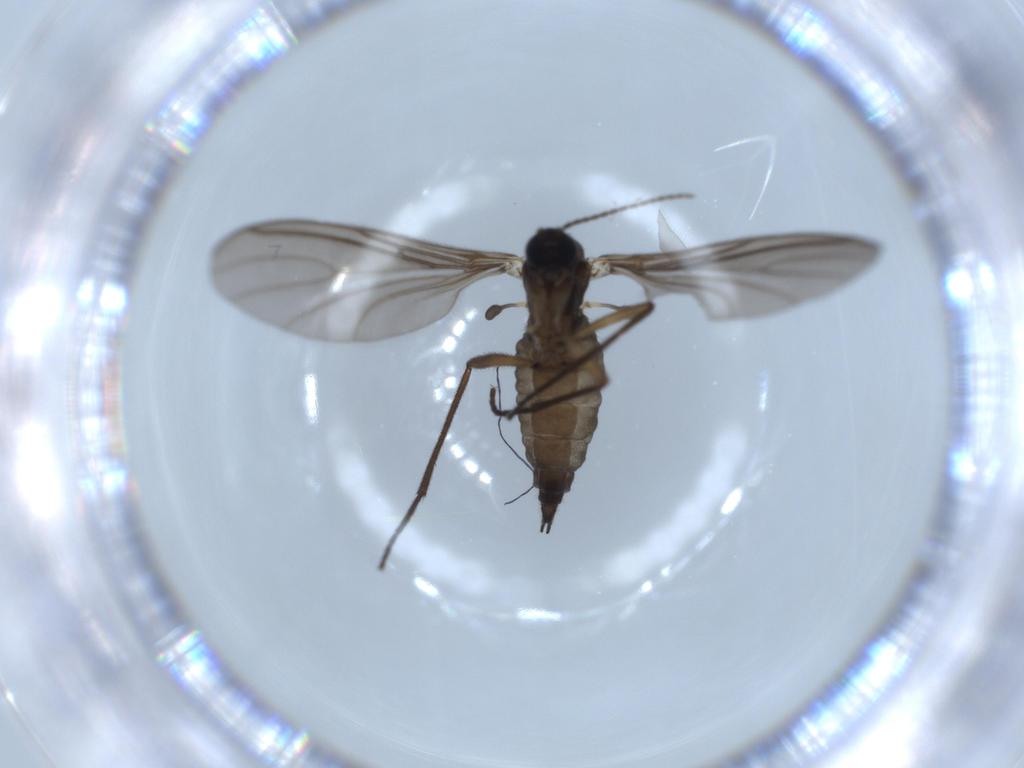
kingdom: Animalia
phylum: Arthropoda
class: Insecta
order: Diptera
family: Sciaridae
